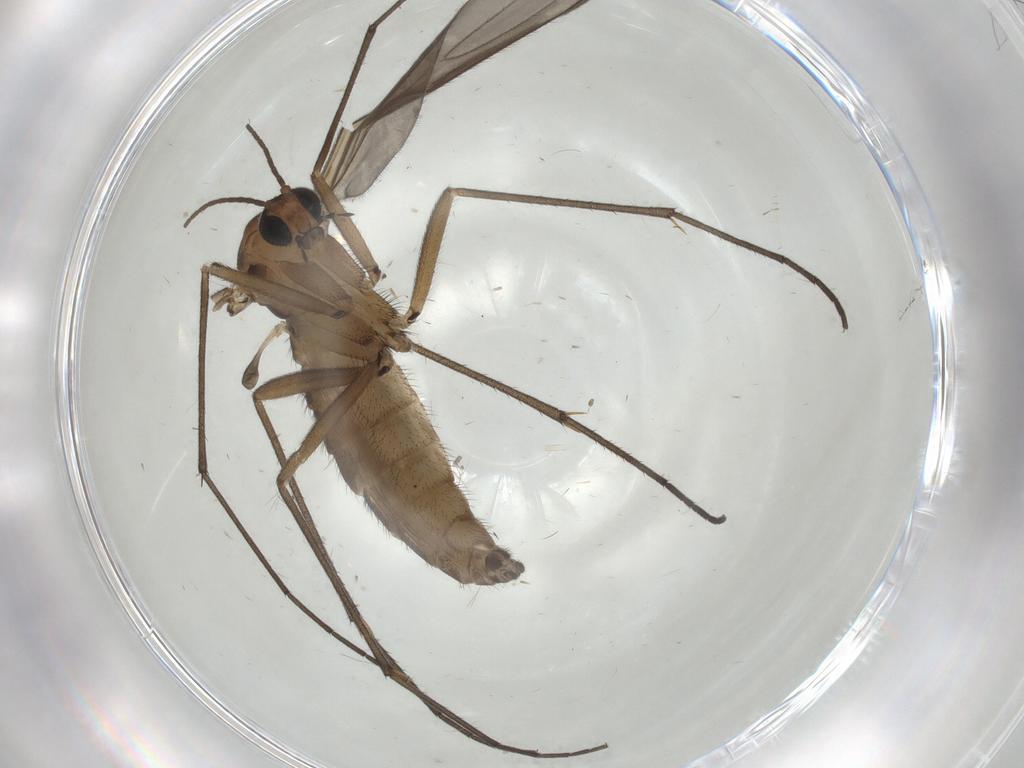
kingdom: Animalia
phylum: Arthropoda
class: Insecta
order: Diptera
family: Sciaridae
